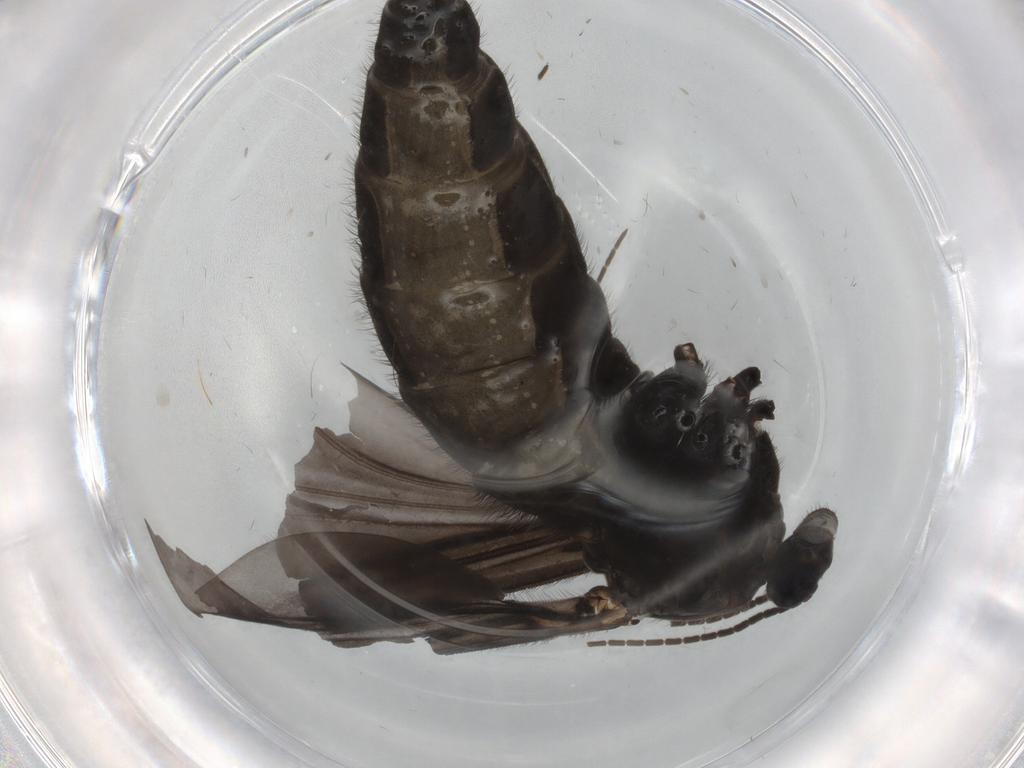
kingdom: Animalia
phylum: Arthropoda
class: Insecta
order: Diptera
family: Sciaridae
